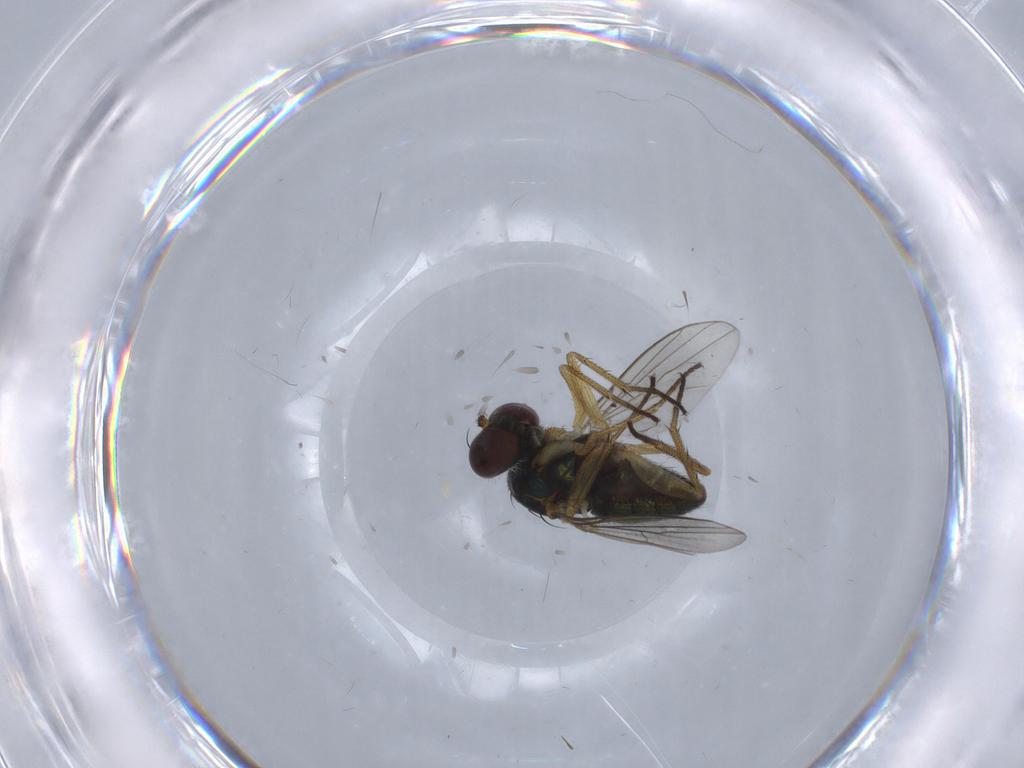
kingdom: Animalia
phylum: Arthropoda
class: Insecta
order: Diptera
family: Dolichopodidae
